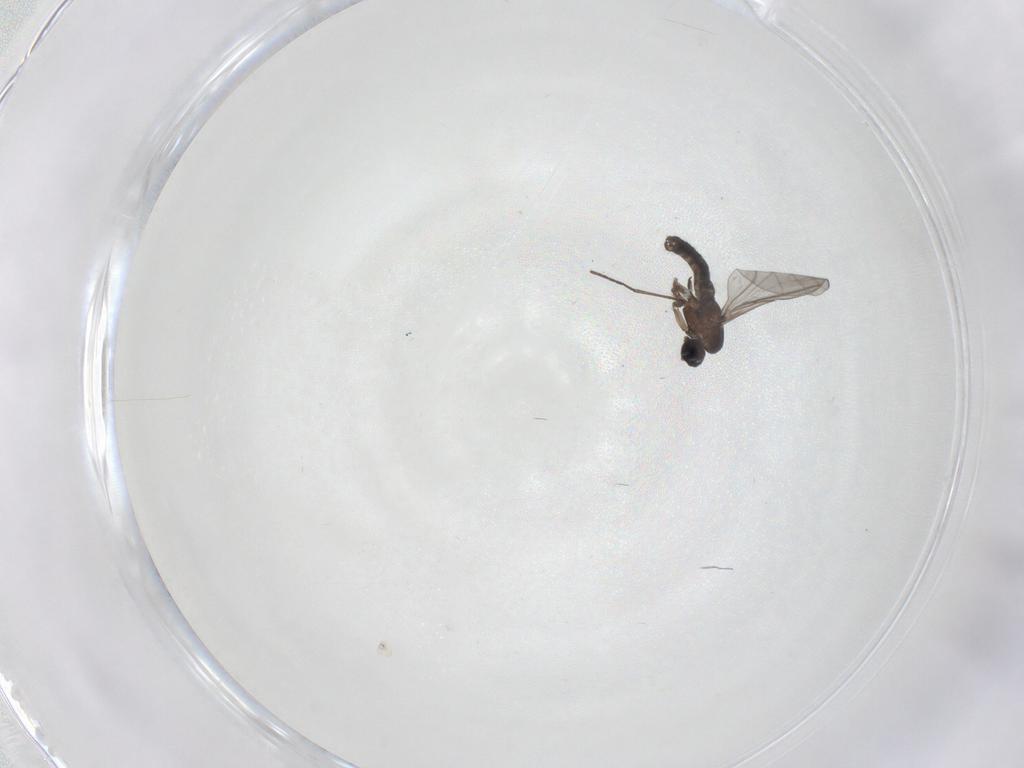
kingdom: Animalia
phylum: Arthropoda
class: Insecta
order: Diptera
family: Sciaridae
